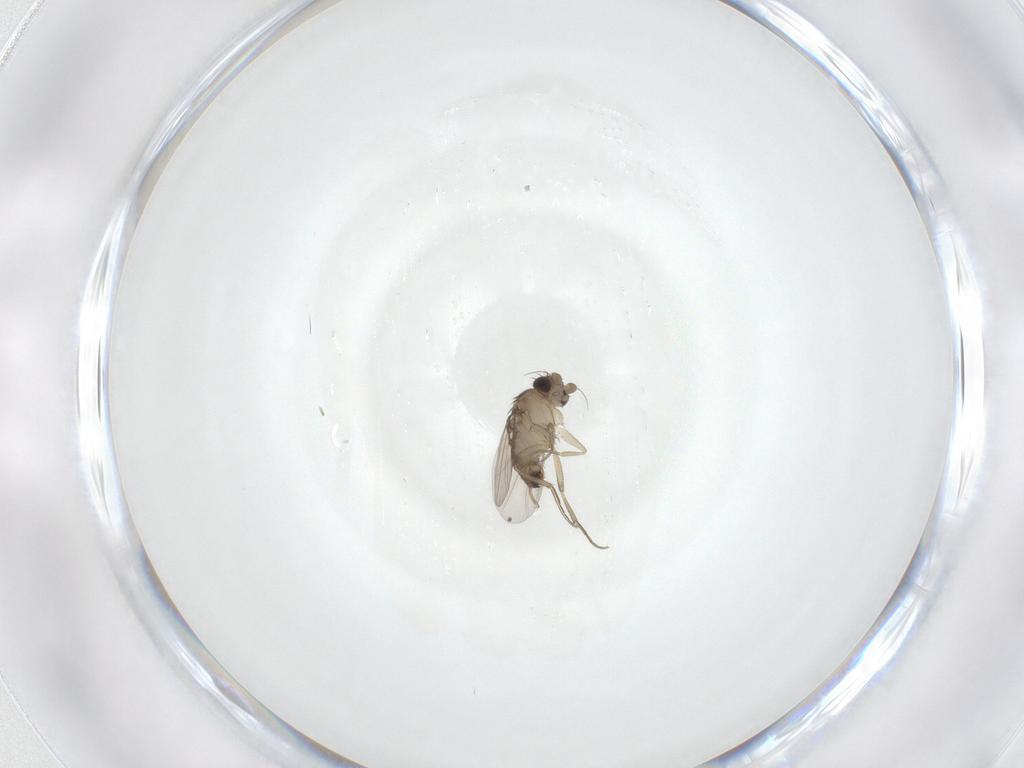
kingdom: Animalia
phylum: Arthropoda
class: Insecta
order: Diptera
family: Phoridae
